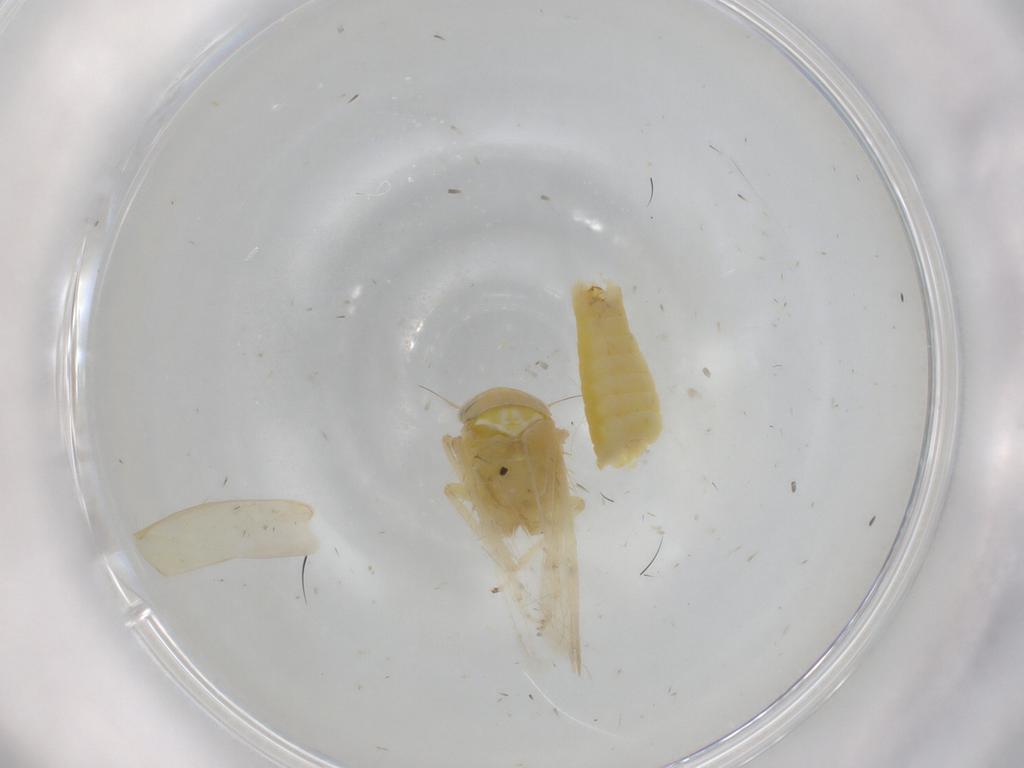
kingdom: Animalia
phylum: Arthropoda
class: Insecta
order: Hemiptera
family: Cicadellidae
